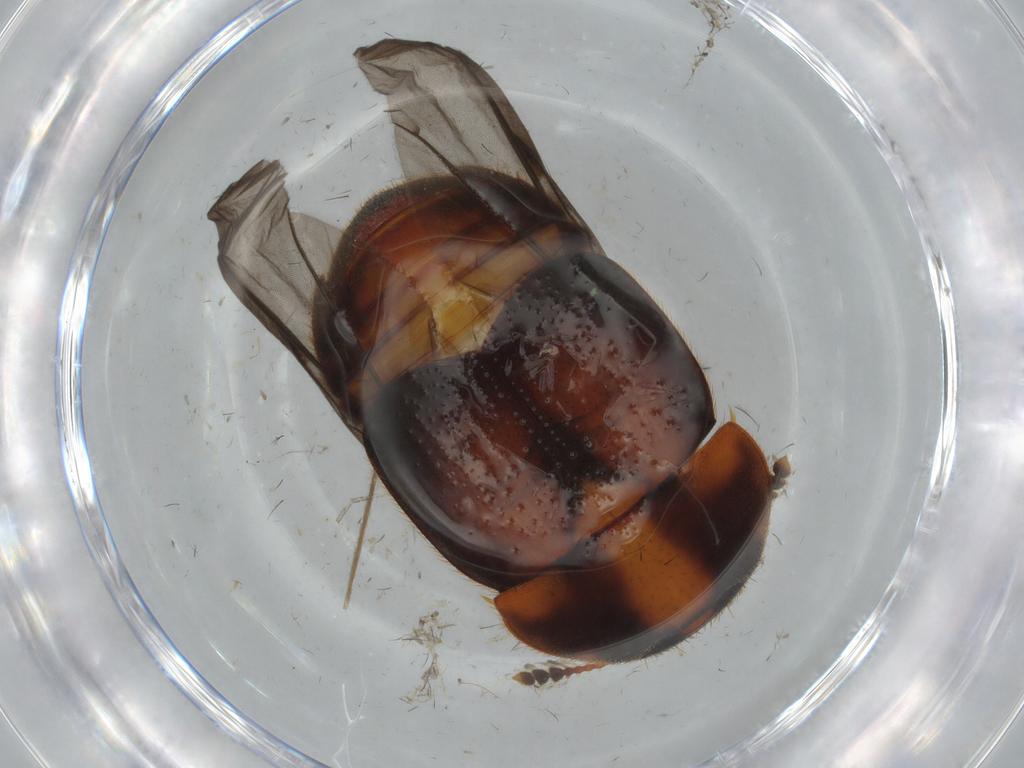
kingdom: Animalia
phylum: Arthropoda
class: Insecta
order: Coleoptera
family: Nitidulidae
